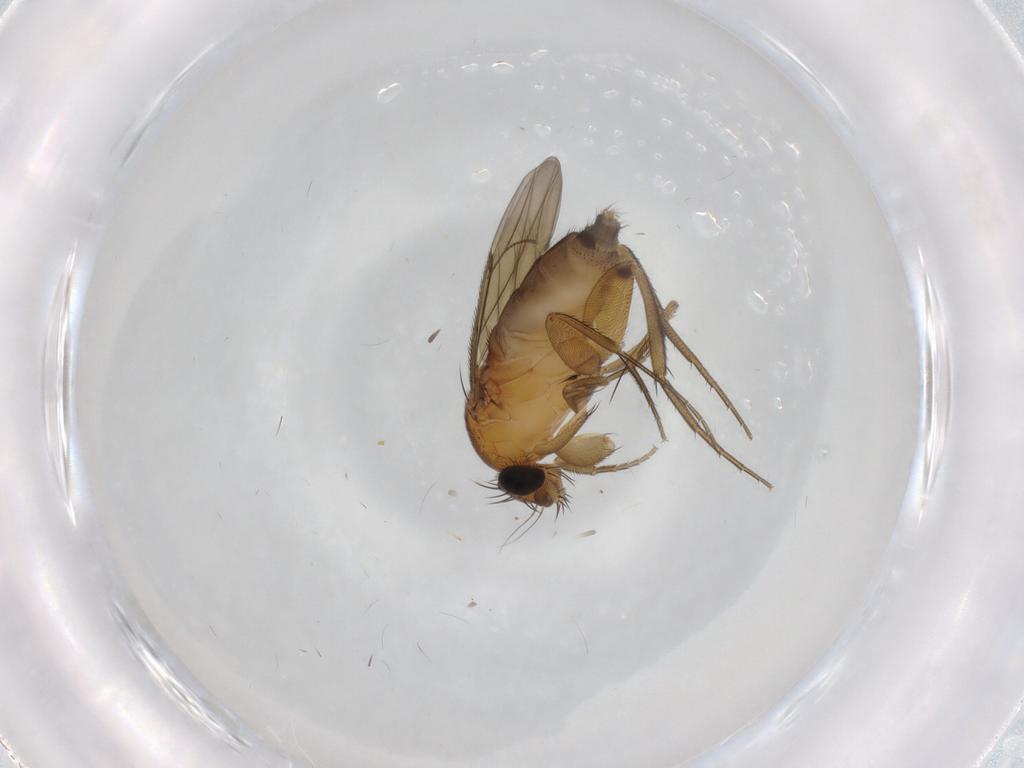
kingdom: Animalia
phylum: Arthropoda
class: Insecta
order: Diptera
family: Phoridae
